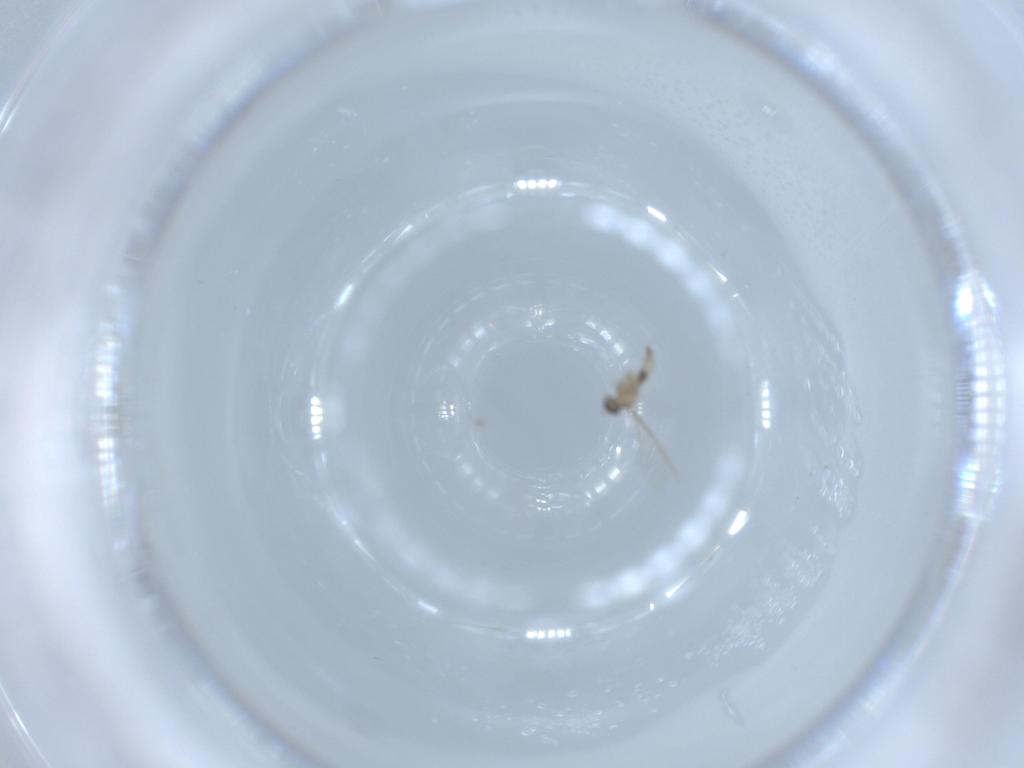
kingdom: Animalia
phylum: Arthropoda
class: Insecta
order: Diptera
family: Cecidomyiidae
